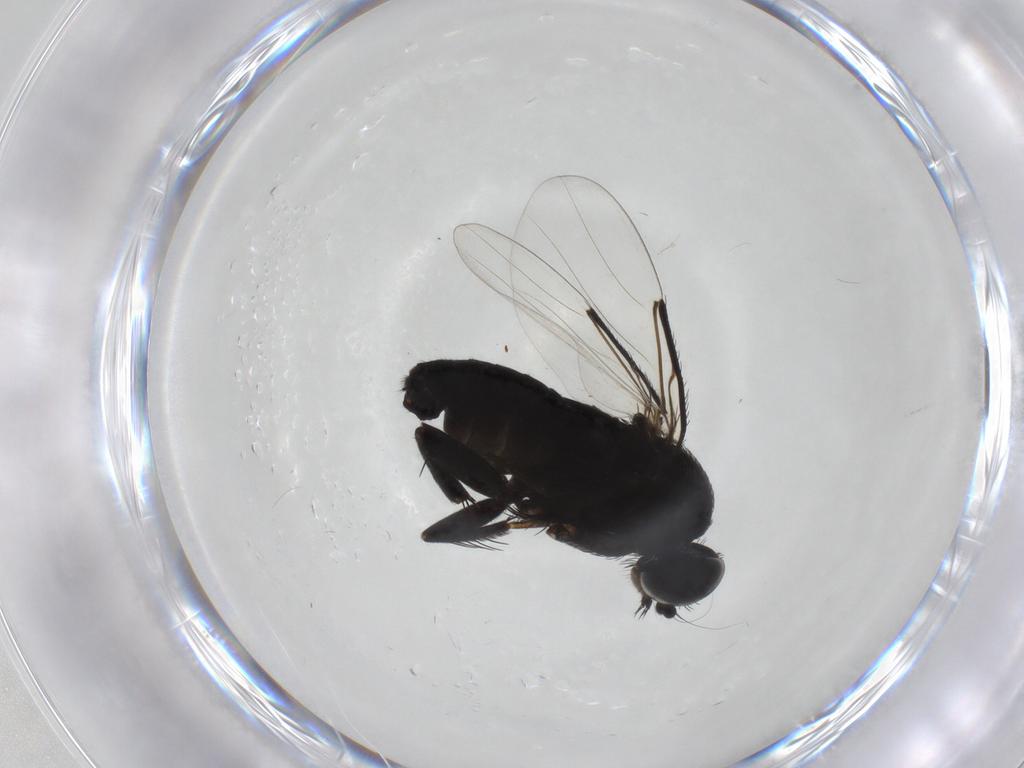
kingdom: Animalia
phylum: Arthropoda
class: Insecta
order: Diptera
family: Phoridae
